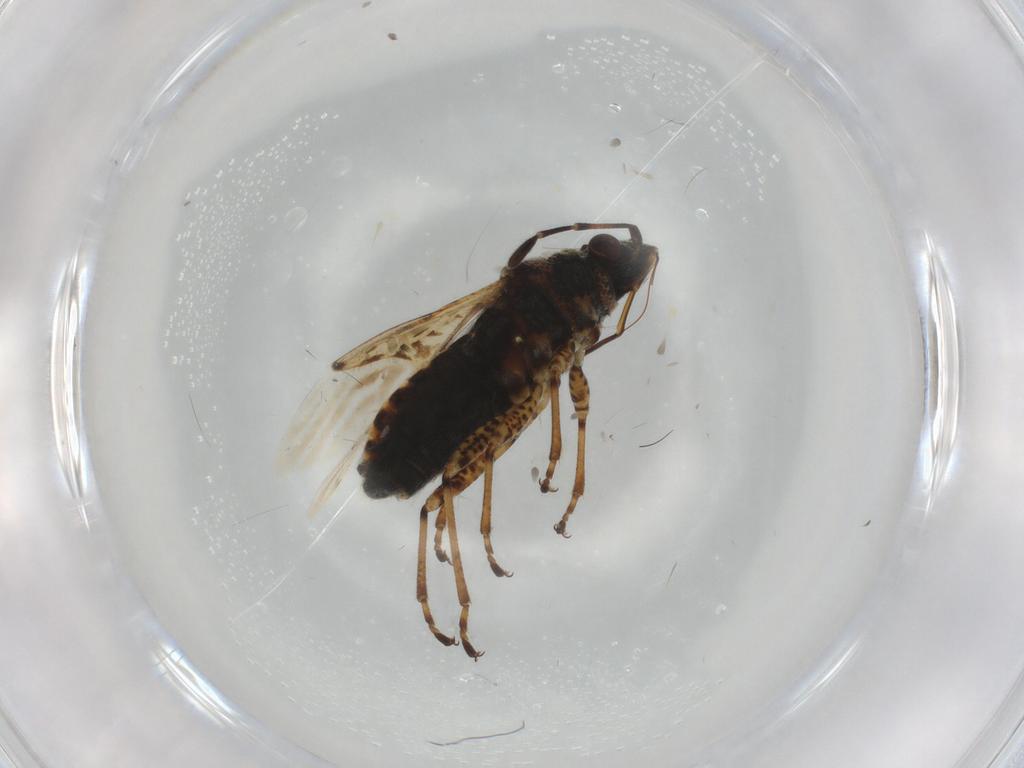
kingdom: Animalia
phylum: Arthropoda
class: Insecta
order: Hemiptera
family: Lygaeidae
